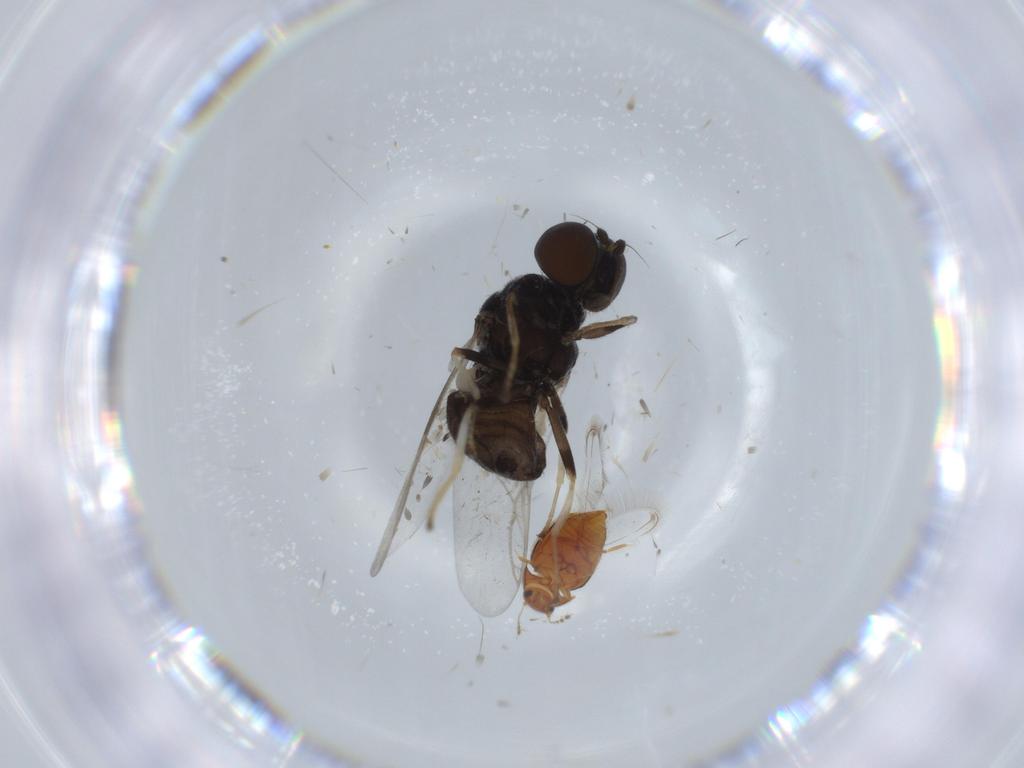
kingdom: Animalia
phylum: Arthropoda
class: Insecta
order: Diptera
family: Stratiomyidae
